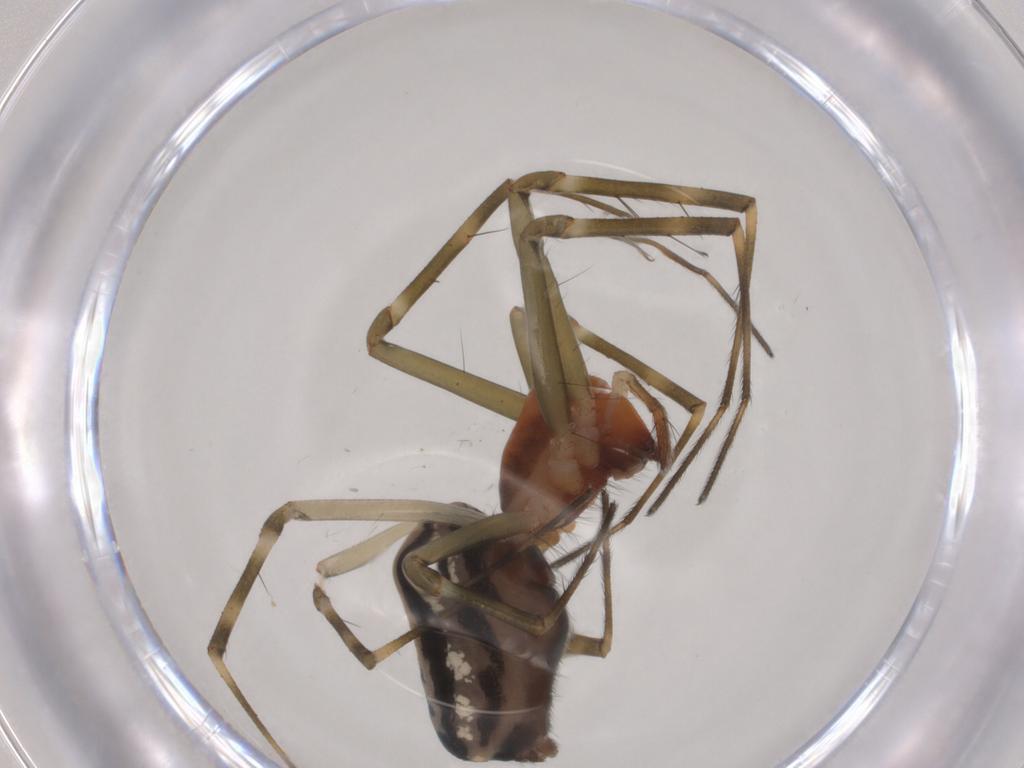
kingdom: Animalia
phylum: Arthropoda
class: Arachnida
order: Araneae
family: Linyphiidae
